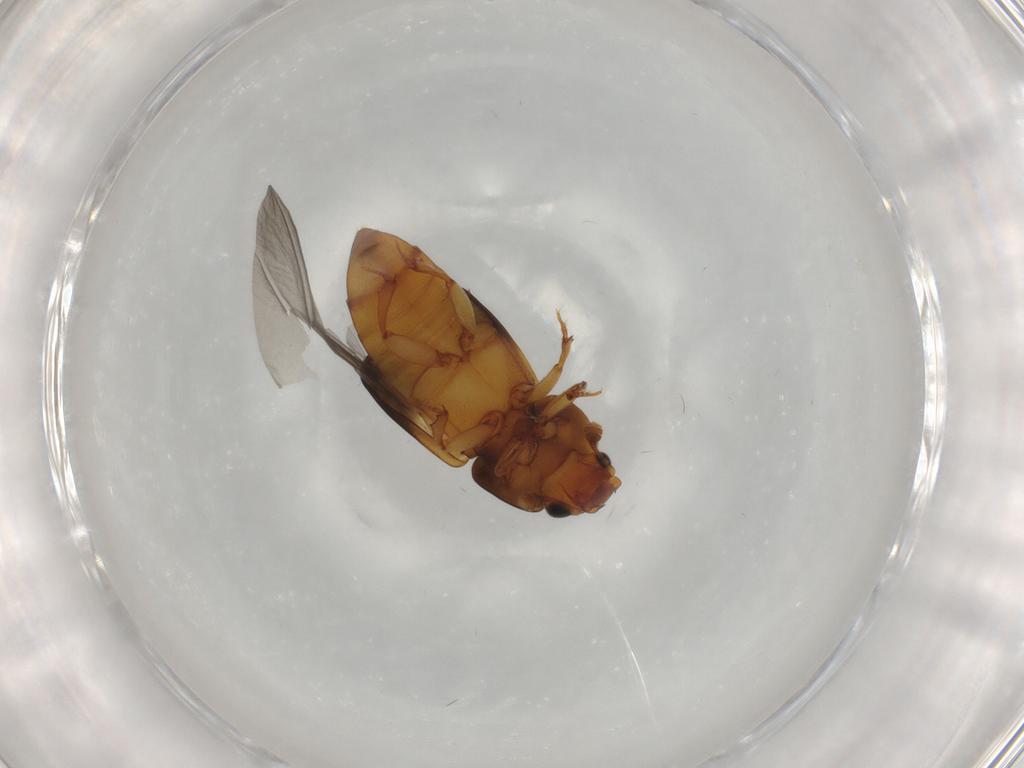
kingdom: Animalia
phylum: Arthropoda
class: Insecta
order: Coleoptera
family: Nitidulidae
